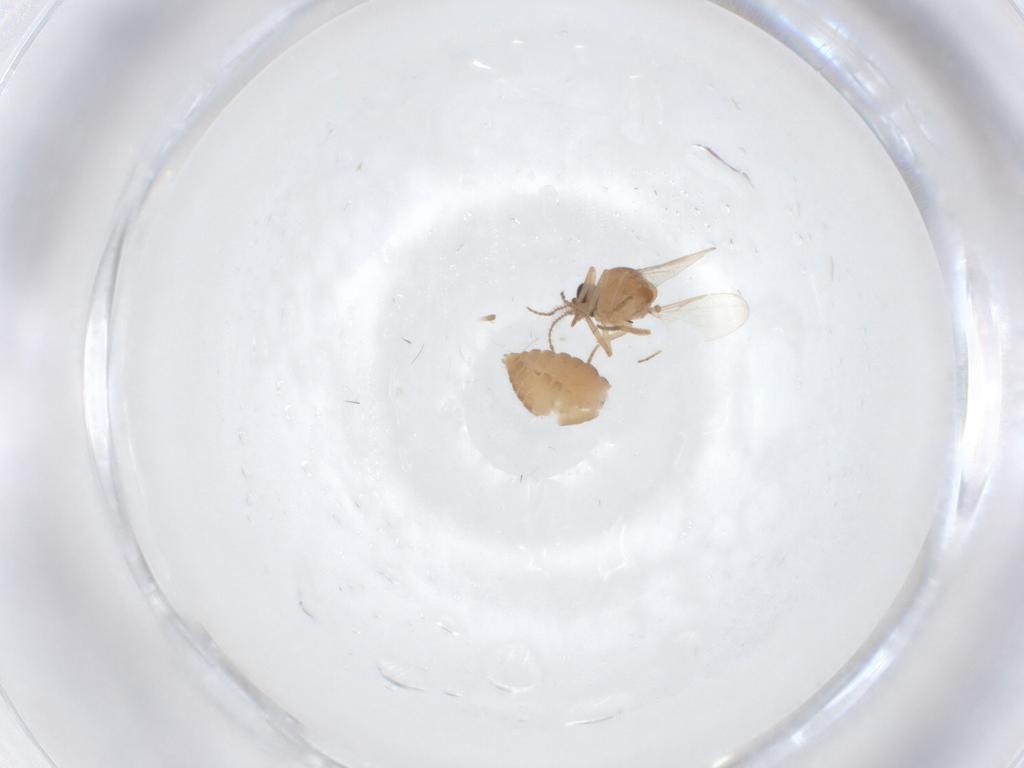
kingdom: Animalia
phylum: Arthropoda
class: Insecta
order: Diptera
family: Ceratopogonidae
